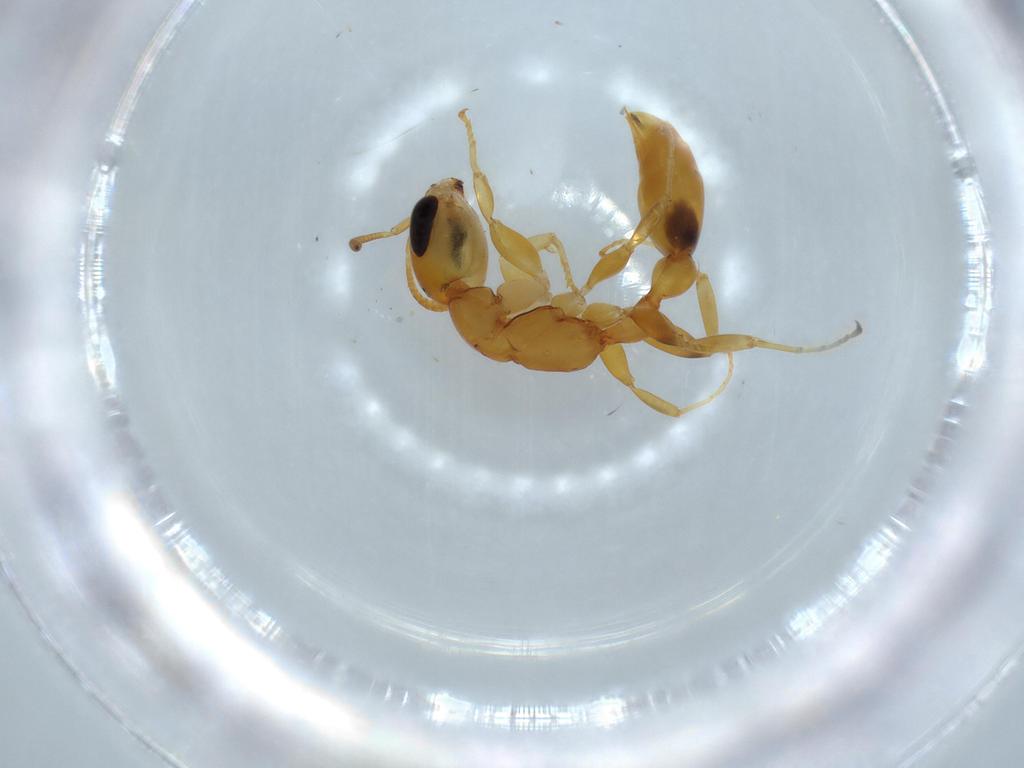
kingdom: Animalia
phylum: Arthropoda
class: Insecta
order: Hymenoptera
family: Formicidae
